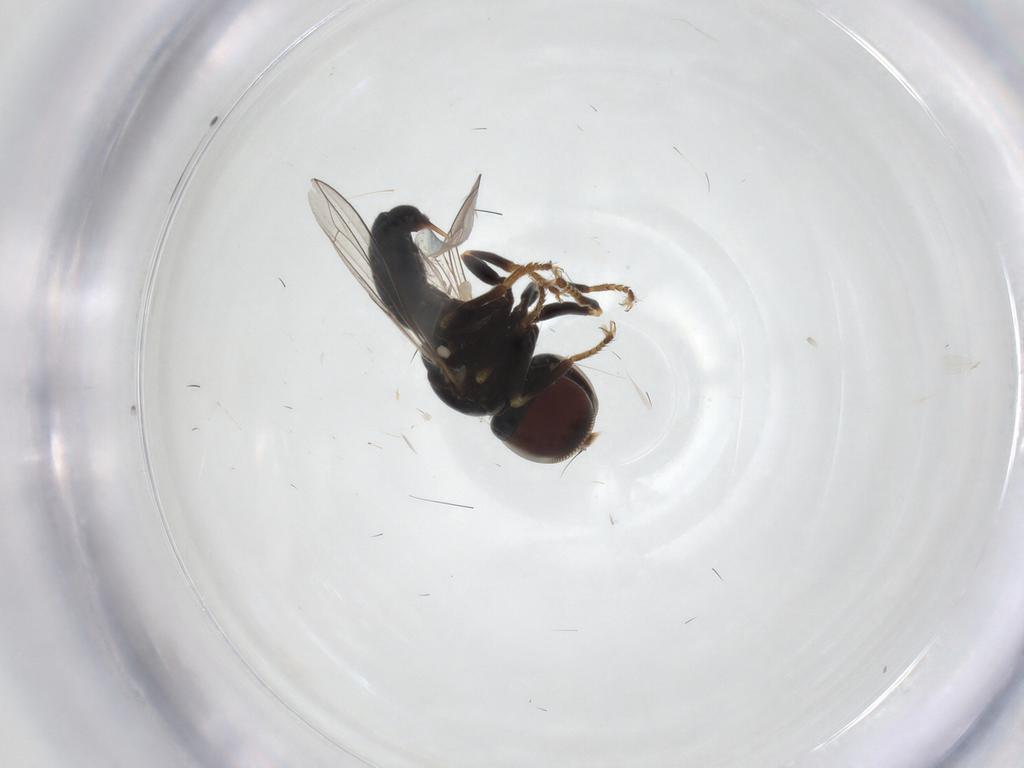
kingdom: Animalia
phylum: Arthropoda
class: Insecta
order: Diptera
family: Pipunculidae
